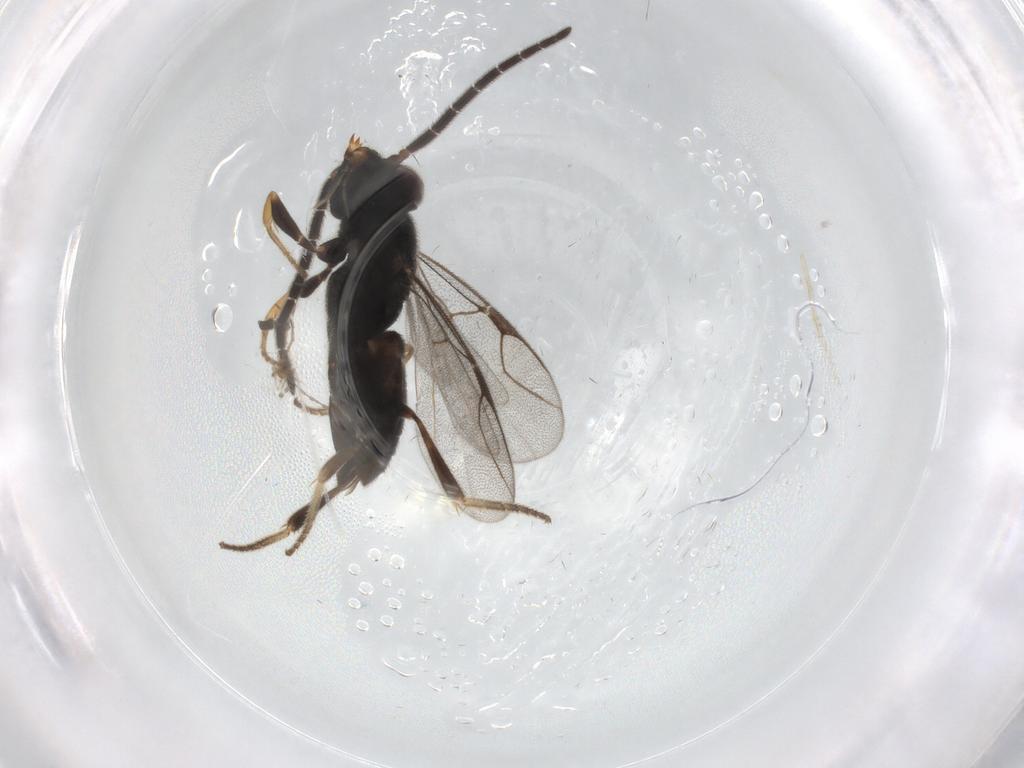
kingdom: Animalia
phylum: Arthropoda
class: Insecta
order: Hymenoptera
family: Dryinidae
